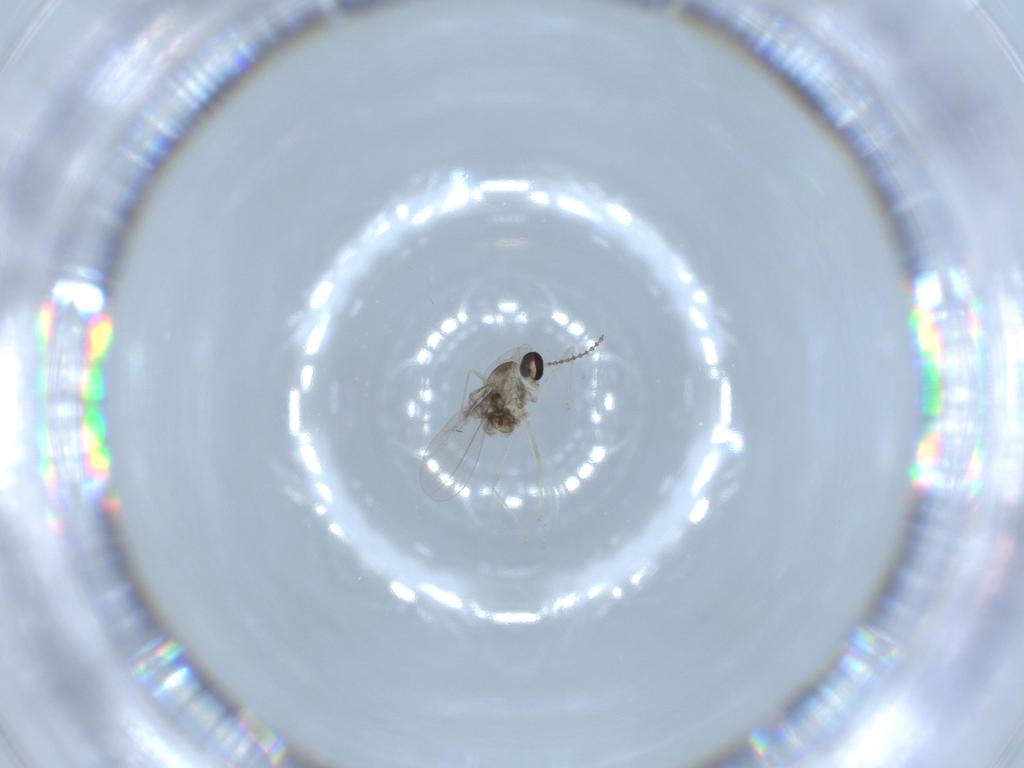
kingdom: Animalia
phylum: Arthropoda
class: Insecta
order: Diptera
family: Cecidomyiidae
